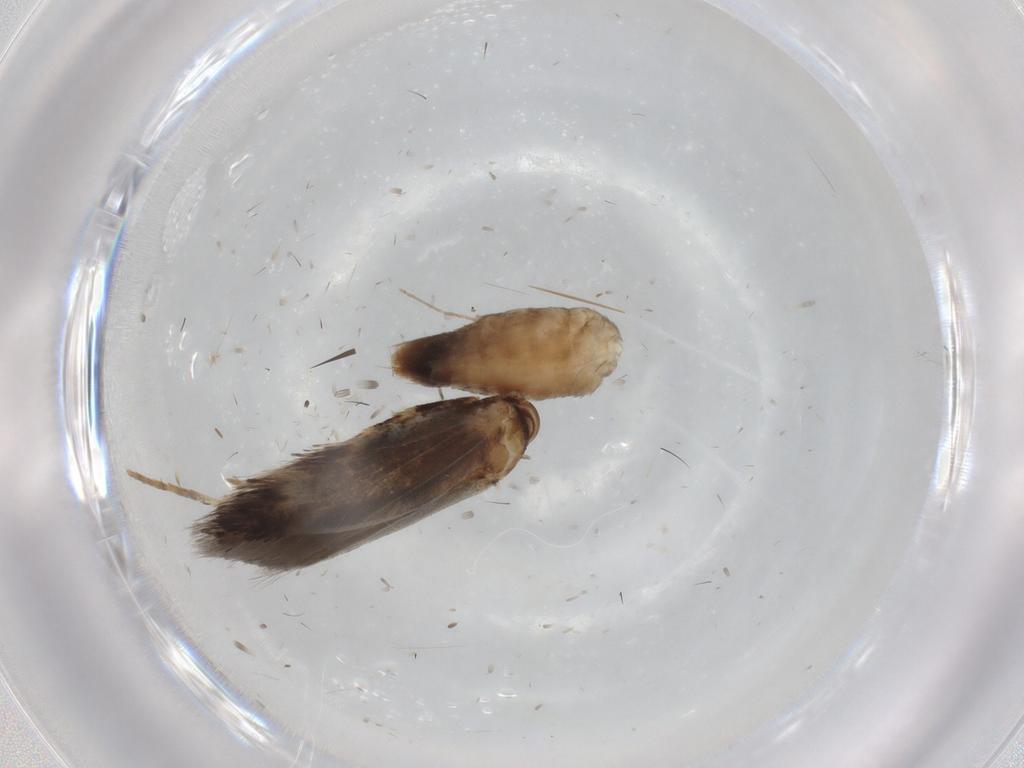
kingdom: Animalia
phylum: Arthropoda
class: Insecta
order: Lepidoptera
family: Elachistidae
